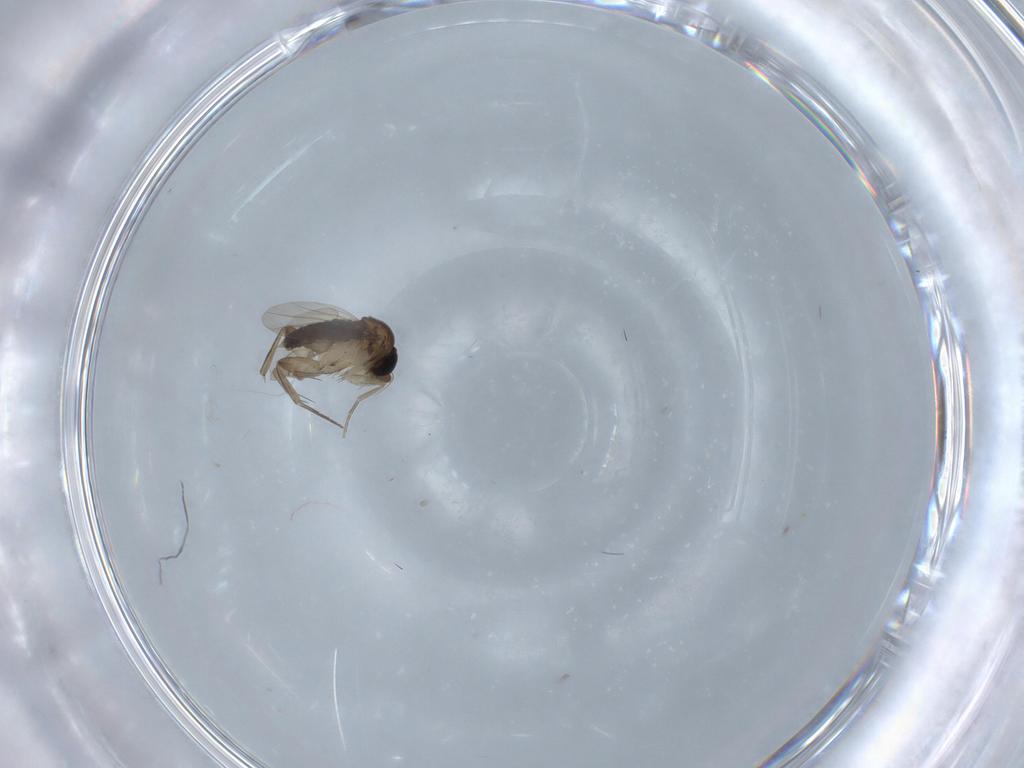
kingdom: Animalia
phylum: Arthropoda
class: Insecta
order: Diptera
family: Phoridae
